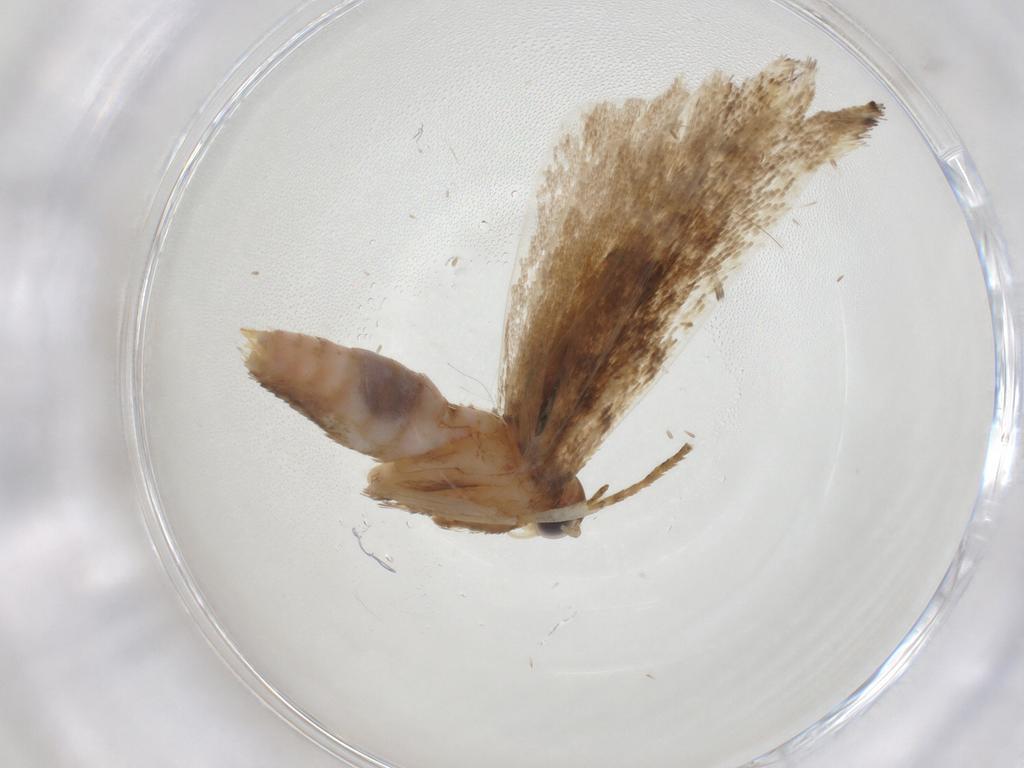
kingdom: Animalia
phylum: Arthropoda
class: Insecta
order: Lepidoptera
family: Gelechiidae
